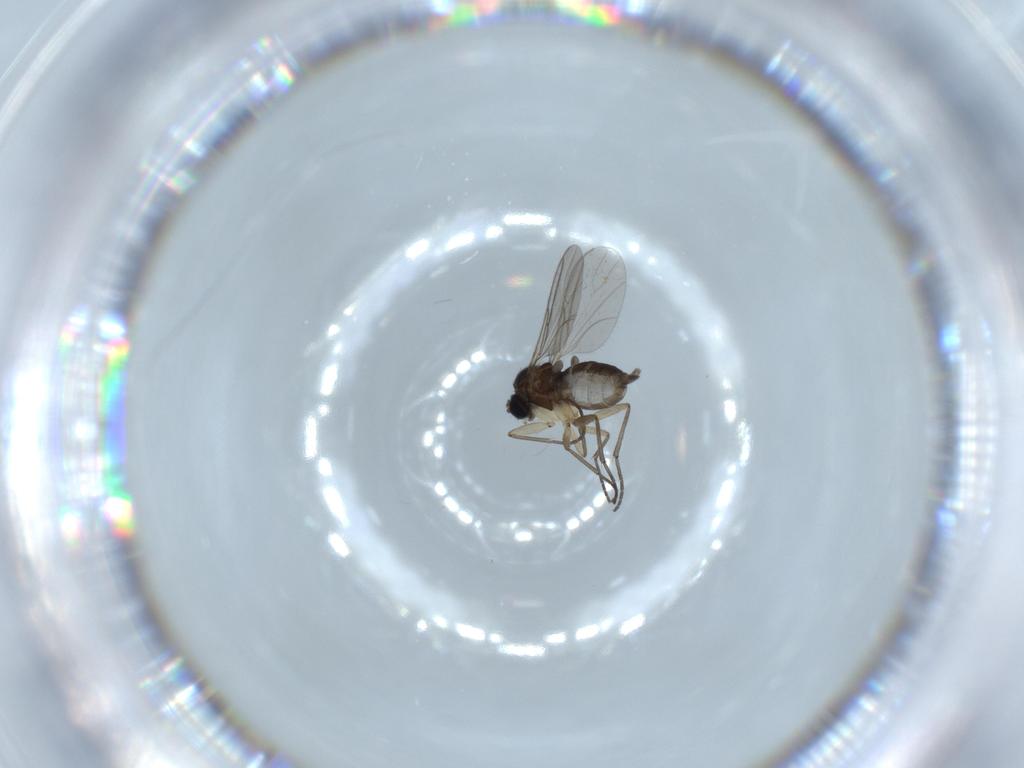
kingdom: Animalia
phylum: Arthropoda
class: Insecta
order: Diptera
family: Sciaridae
